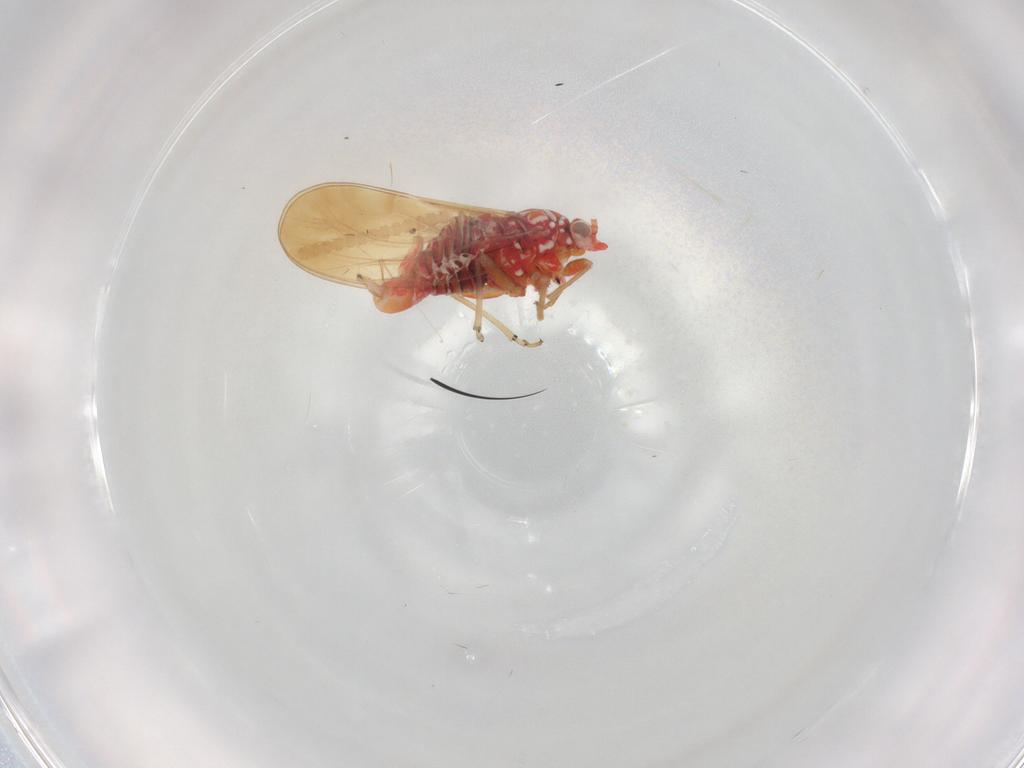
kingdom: Animalia
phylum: Arthropoda
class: Insecta
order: Hemiptera
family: Psyllidae
